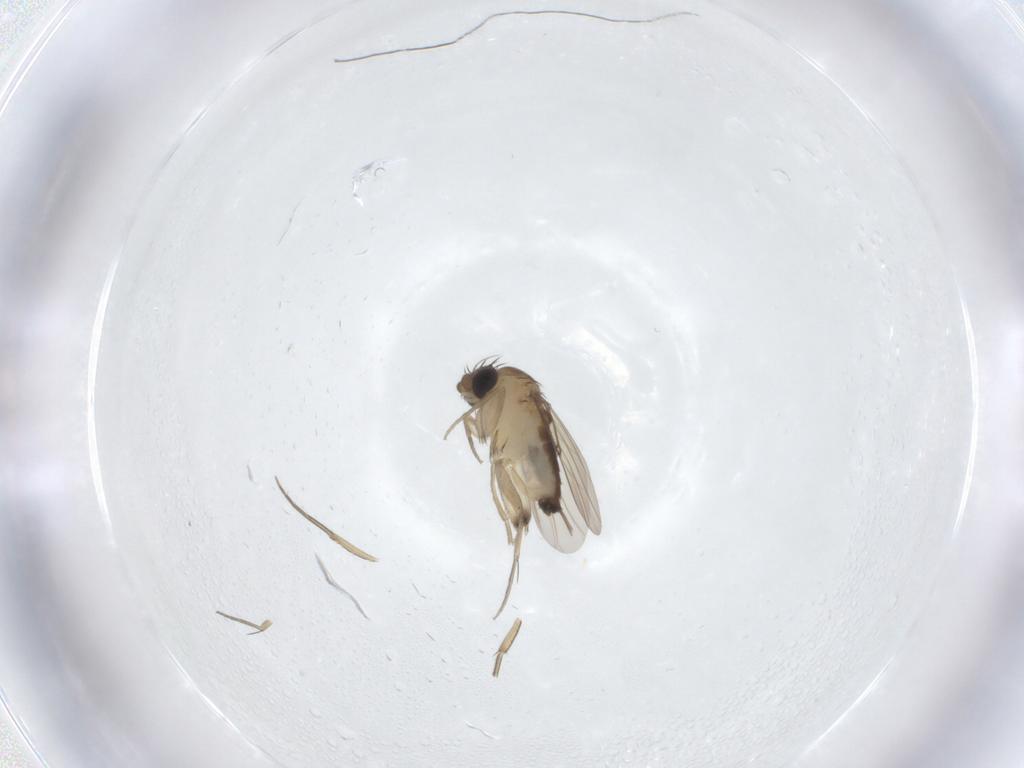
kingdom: Animalia
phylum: Arthropoda
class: Insecta
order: Diptera
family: Phoridae
